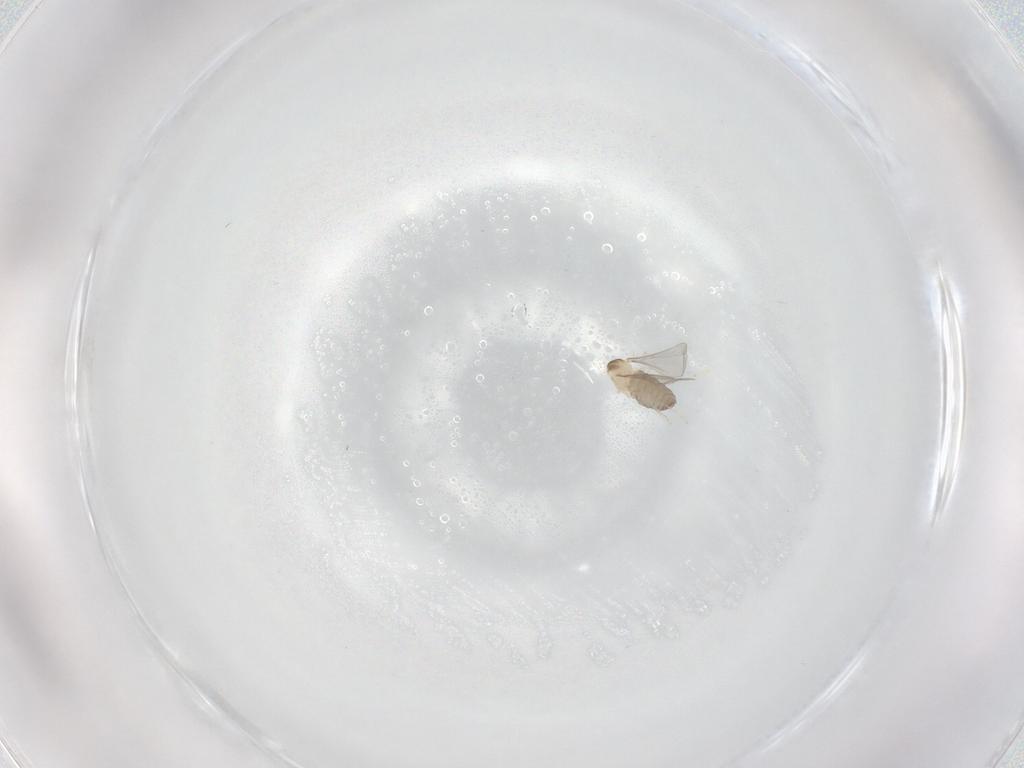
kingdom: Animalia
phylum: Arthropoda
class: Insecta
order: Diptera
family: Cecidomyiidae
